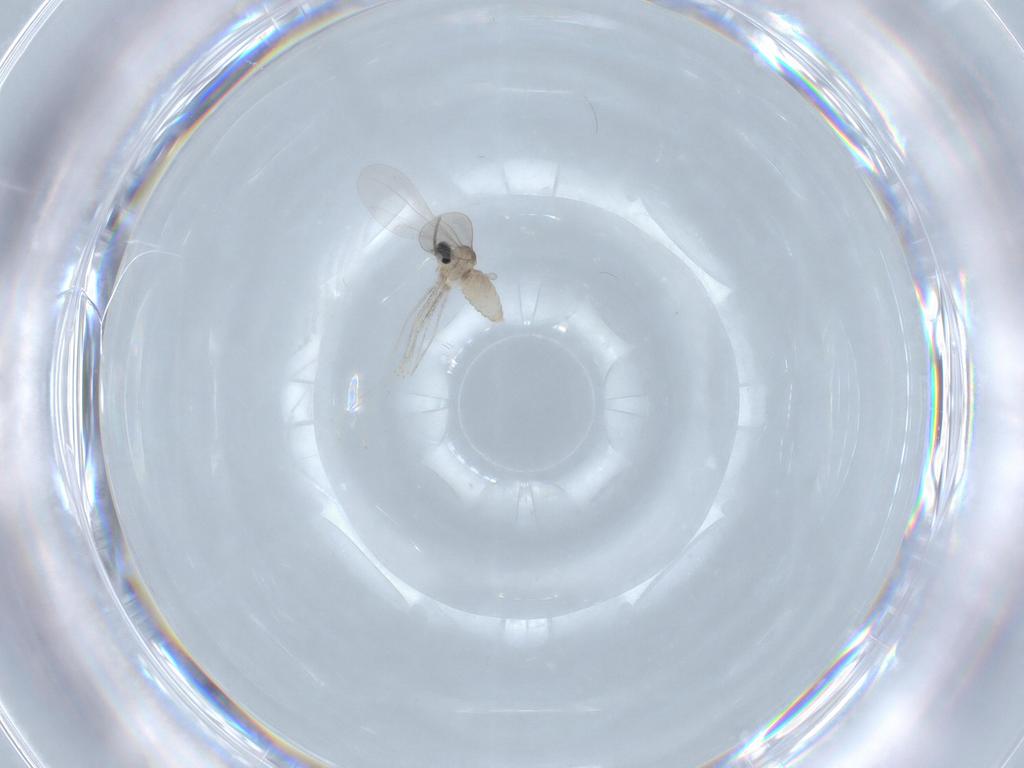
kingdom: Animalia
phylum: Arthropoda
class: Insecta
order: Diptera
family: Cecidomyiidae
